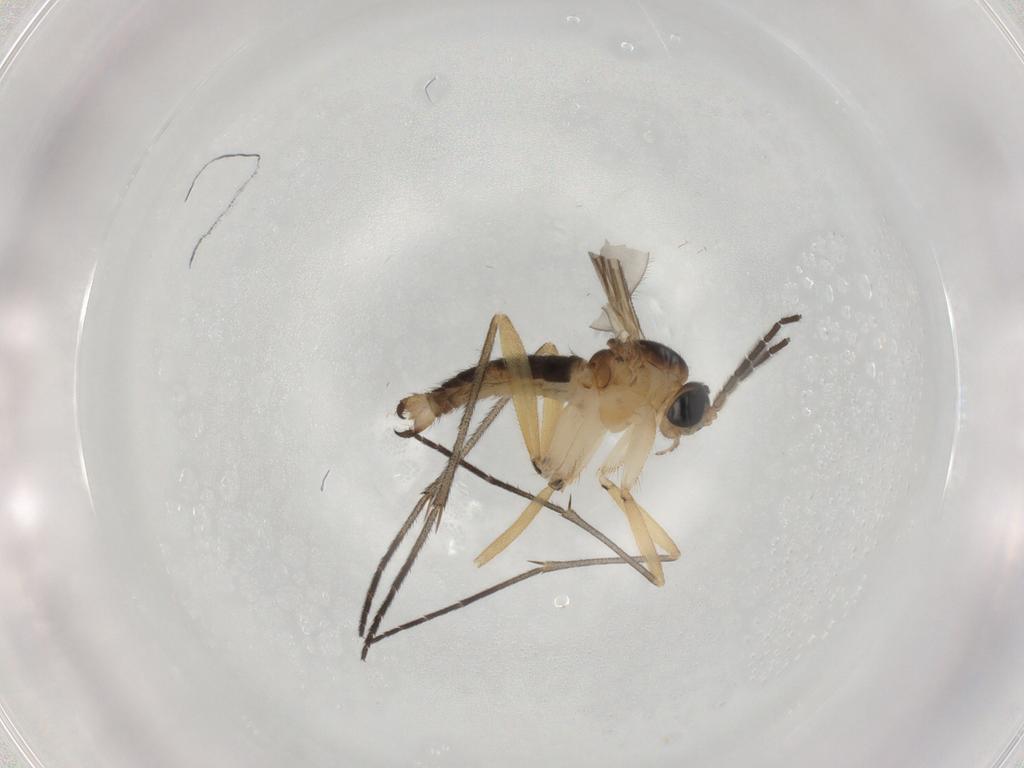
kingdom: Animalia
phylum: Arthropoda
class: Insecta
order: Diptera
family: Sciaridae
